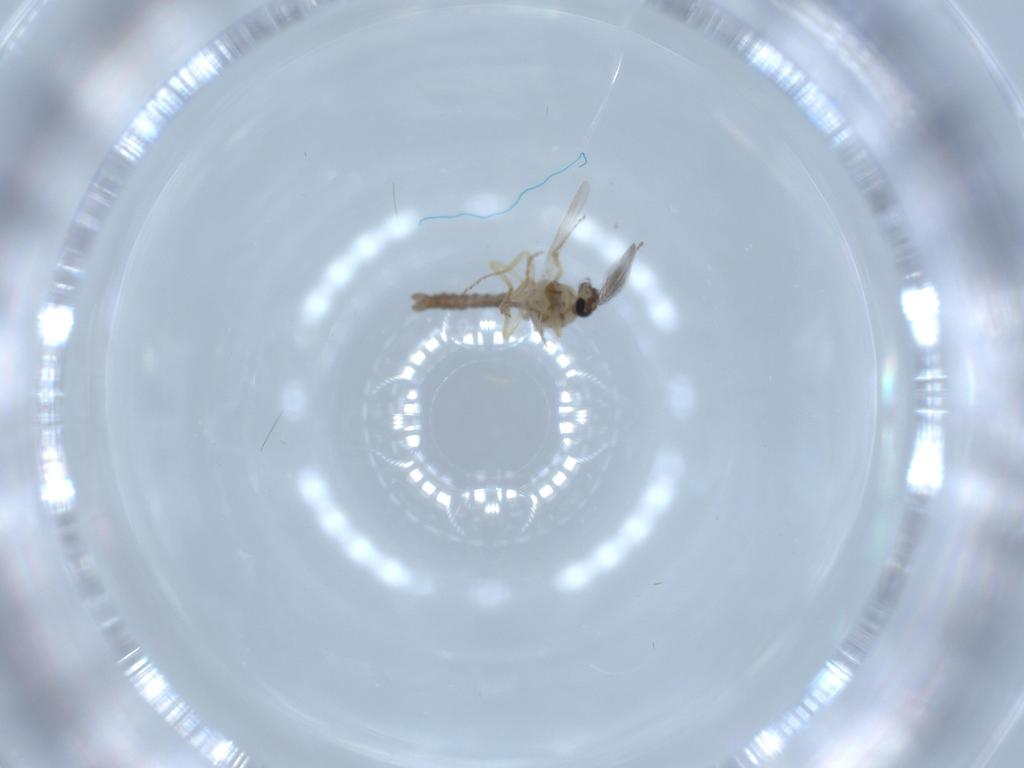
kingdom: Animalia
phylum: Arthropoda
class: Insecta
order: Diptera
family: Ceratopogonidae
